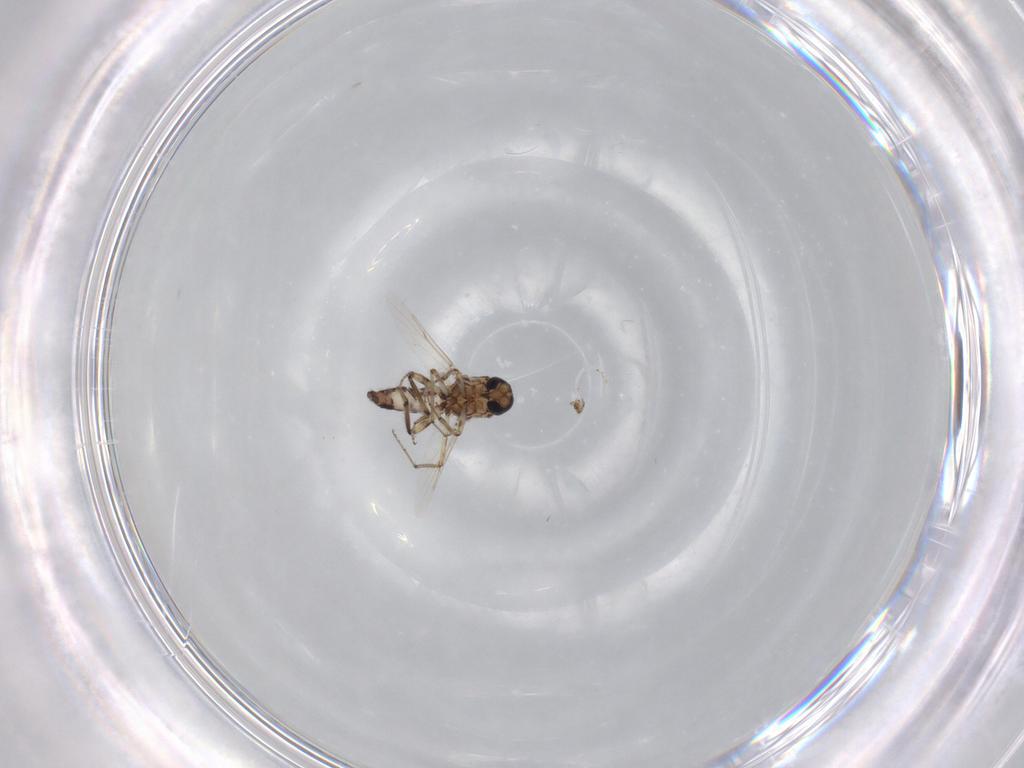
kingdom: Animalia
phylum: Arthropoda
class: Insecta
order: Diptera
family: Ceratopogonidae
